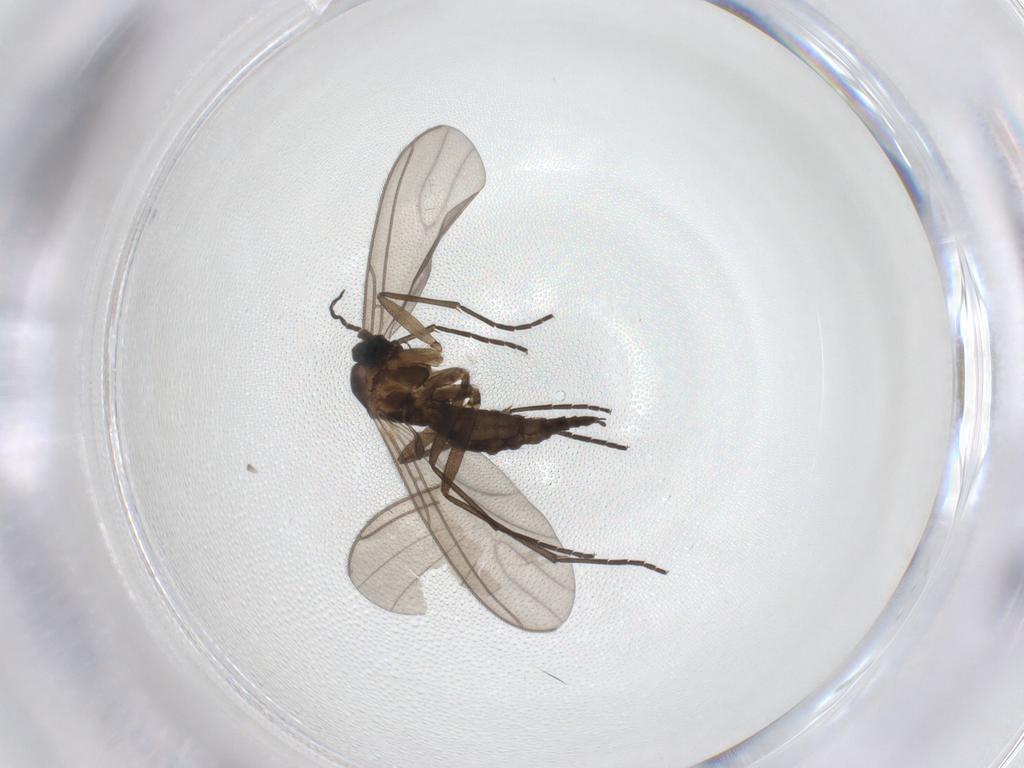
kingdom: Animalia
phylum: Arthropoda
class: Insecta
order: Diptera
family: Sciaridae
